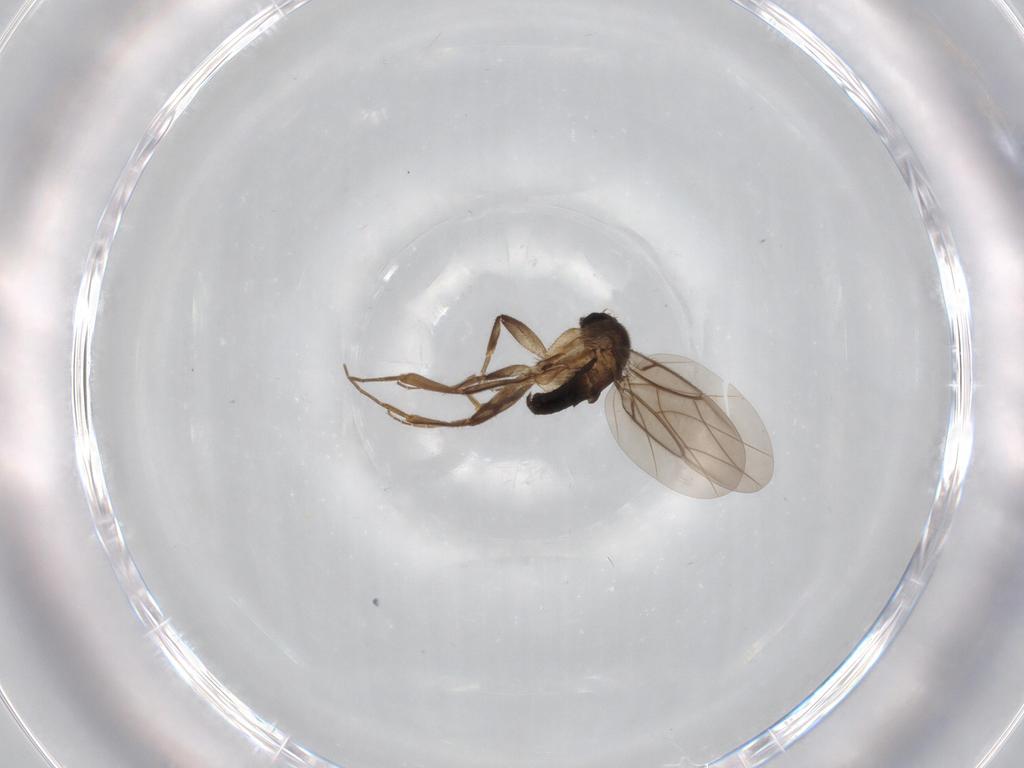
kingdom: Animalia
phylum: Arthropoda
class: Insecta
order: Diptera
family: Phoridae
